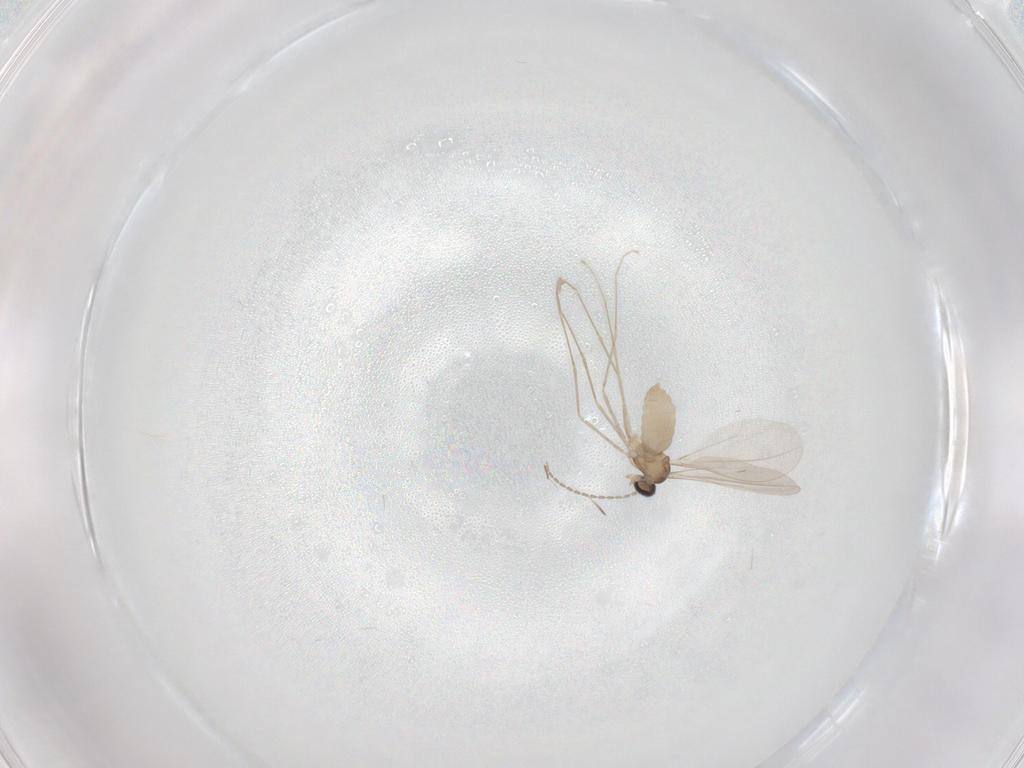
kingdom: Animalia
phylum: Arthropoda
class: Insecta
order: Diptera
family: Cecidomyiidae
